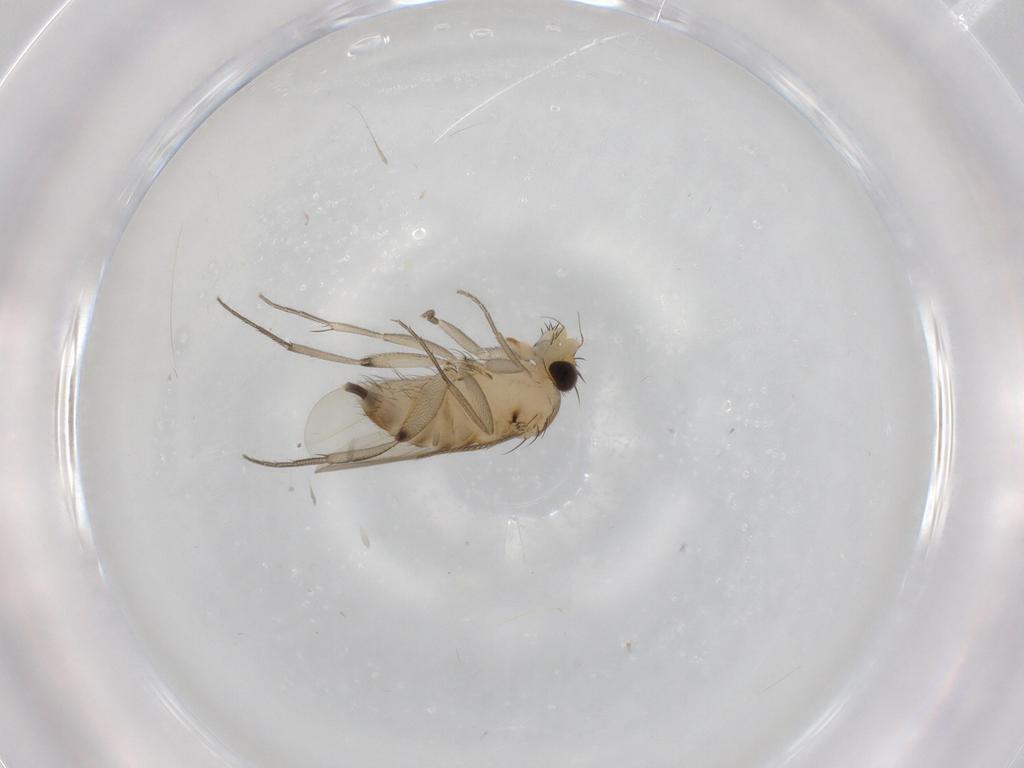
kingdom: Animalia
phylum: Arthropoda
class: Insecta
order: Diptera
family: Phoridae
